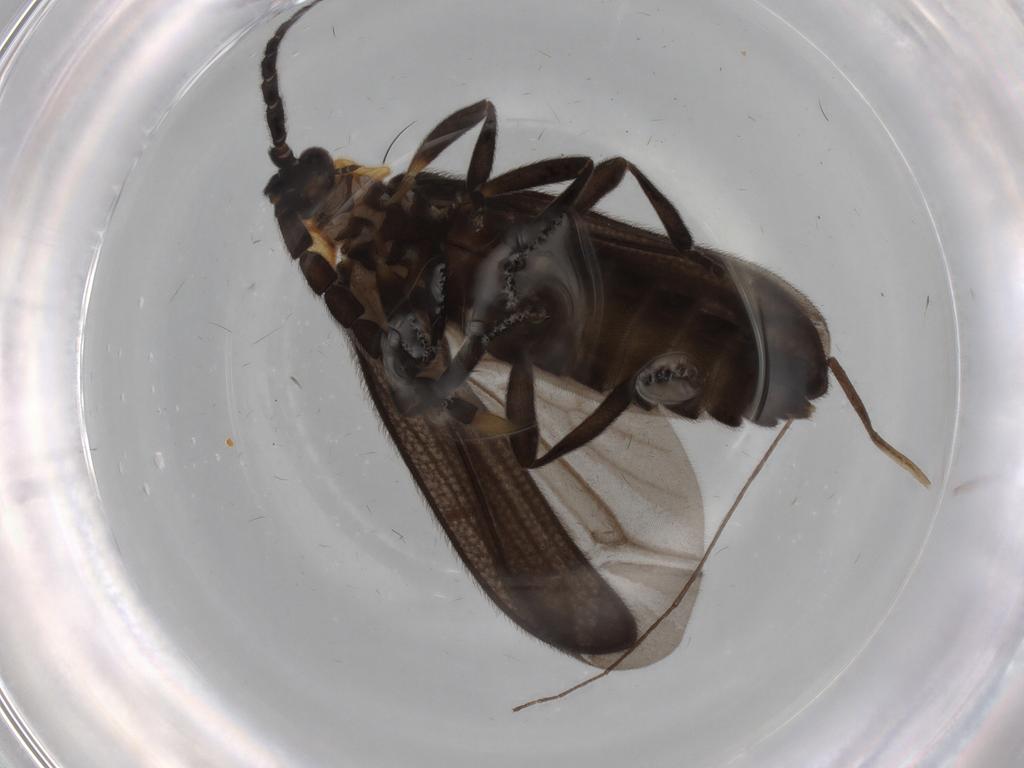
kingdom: Animalia
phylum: Arthropoda
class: Insecta
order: Coleoptera
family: Lycidae
